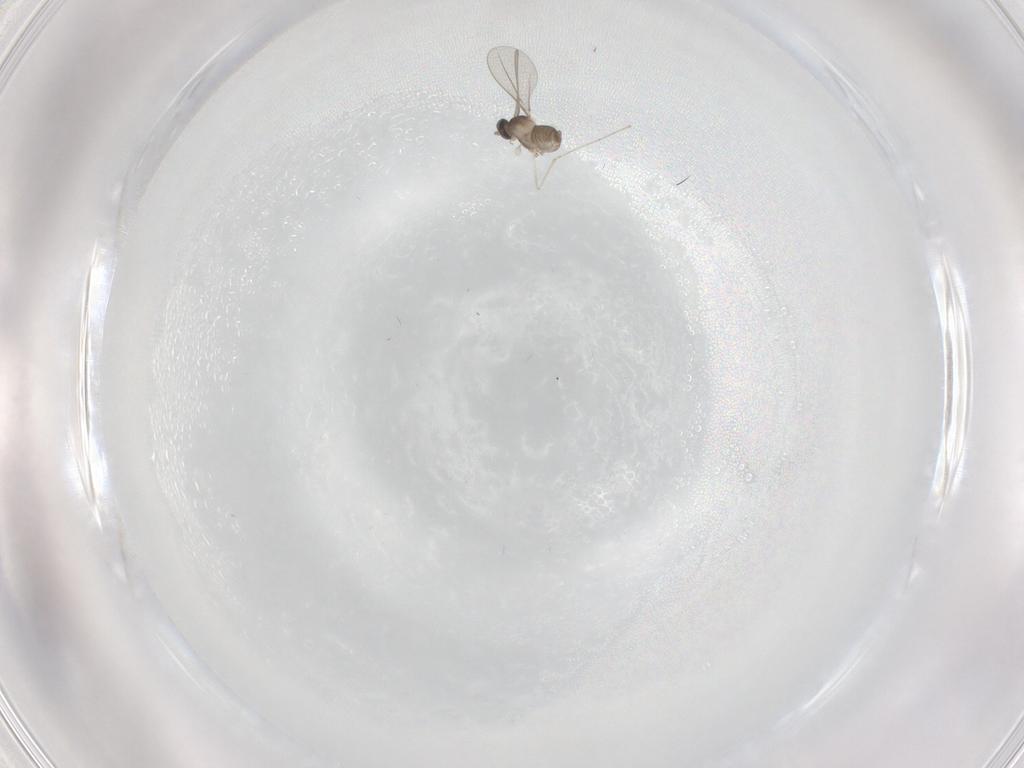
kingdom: Animalia
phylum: Arthropoda
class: Insecta
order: Diptera
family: Cecidomyiidae
